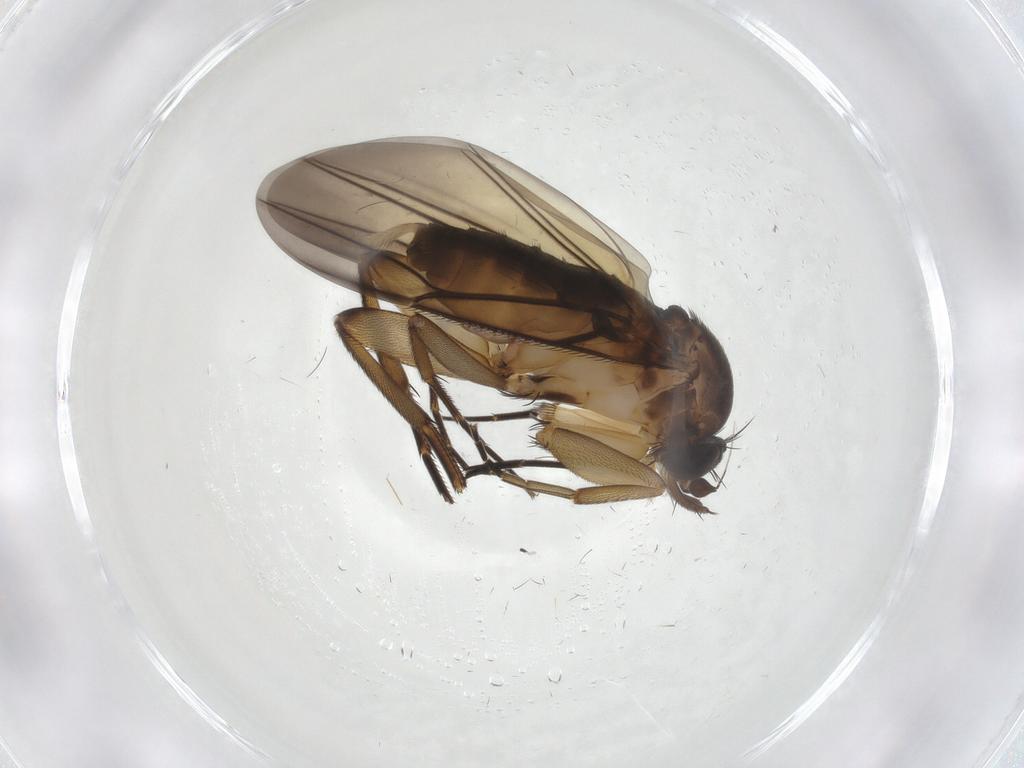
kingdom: Animalia
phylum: Arthropoda
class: Insecta
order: Diptera
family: Phoridae
